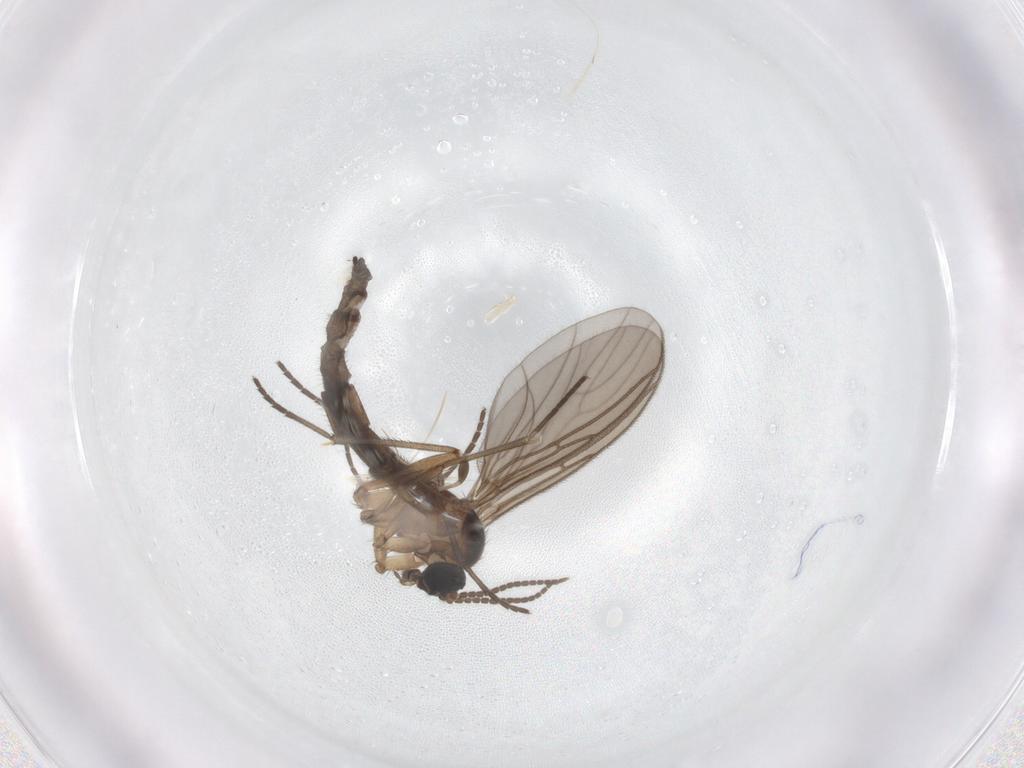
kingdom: Animalia
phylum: Arthropoda
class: Insecta
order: Diptera
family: Sciaridae
